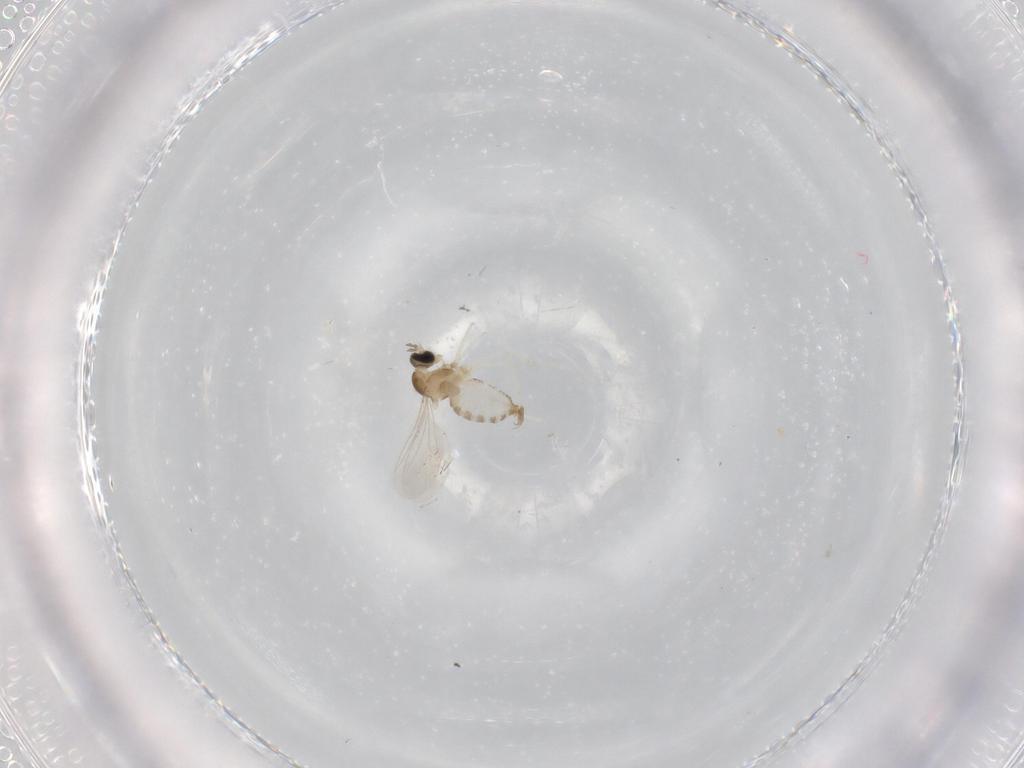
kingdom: Animalia
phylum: Arthropoda
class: Insecta
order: Diptera
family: Cecidomyiidae
